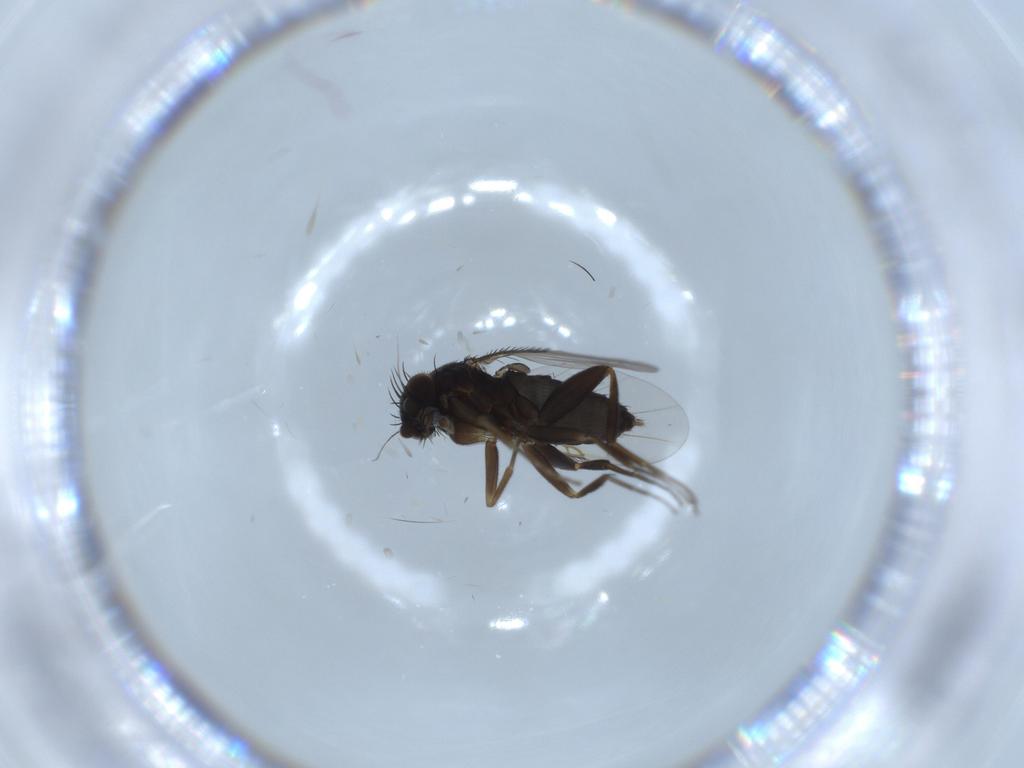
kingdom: Animalia
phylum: Arthropoda
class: Insecta
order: Diptera
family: Phoridae
